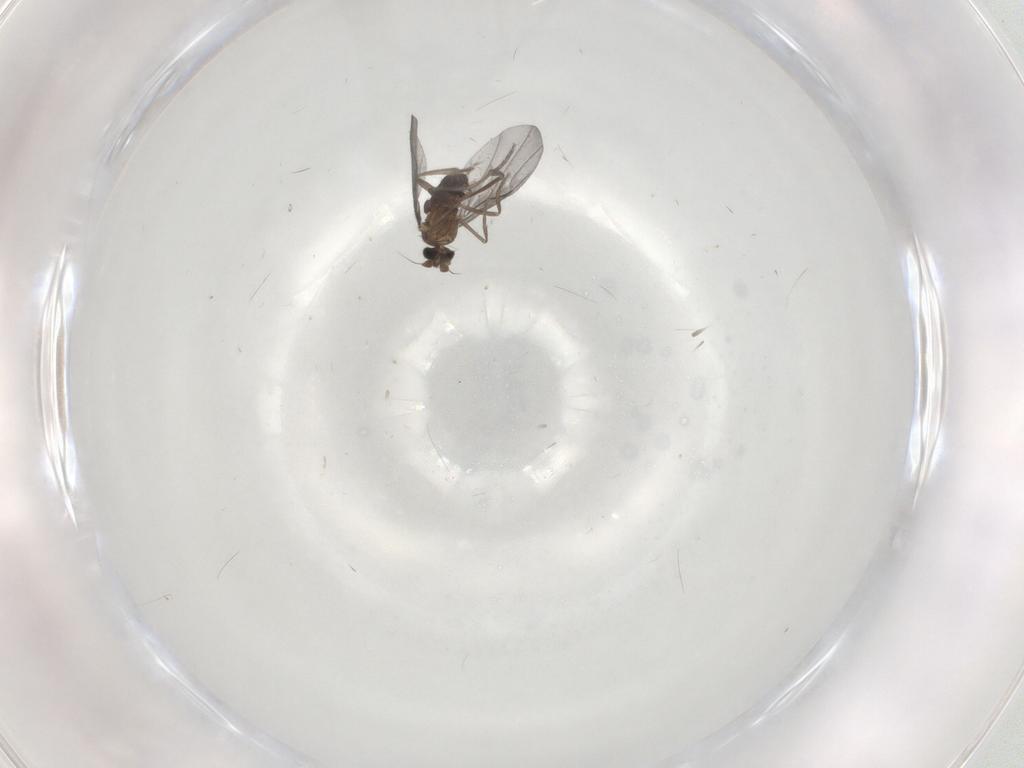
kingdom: Animalia
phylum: Arthropoda
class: Insecta
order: Diptera
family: Phoridae
